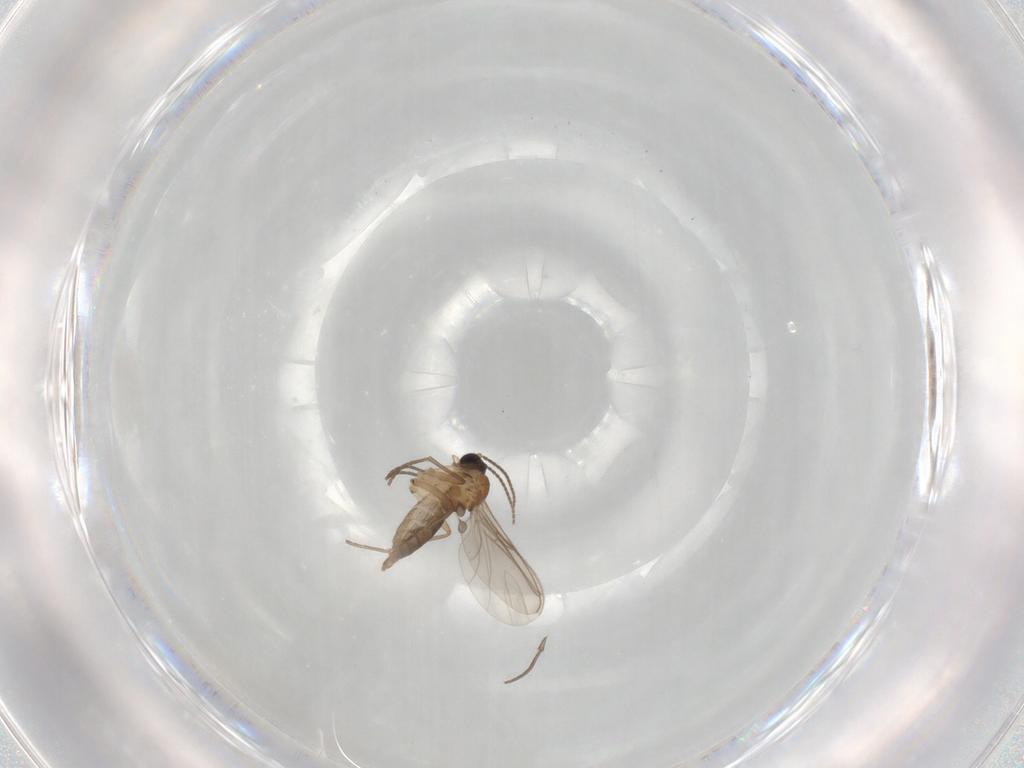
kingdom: Animalia
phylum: Arthropoda
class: Insecta
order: Diptera
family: Sciaridae
